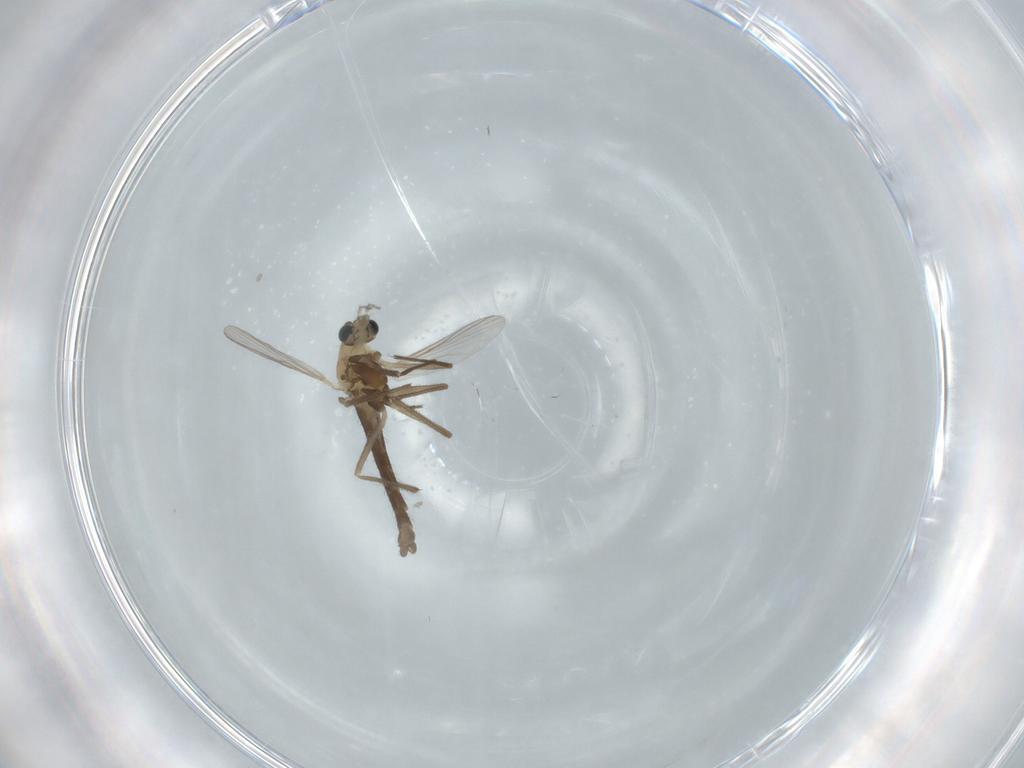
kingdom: Animalia
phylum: Arthropoda
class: Insecta
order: Diptera
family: Chironomidae
